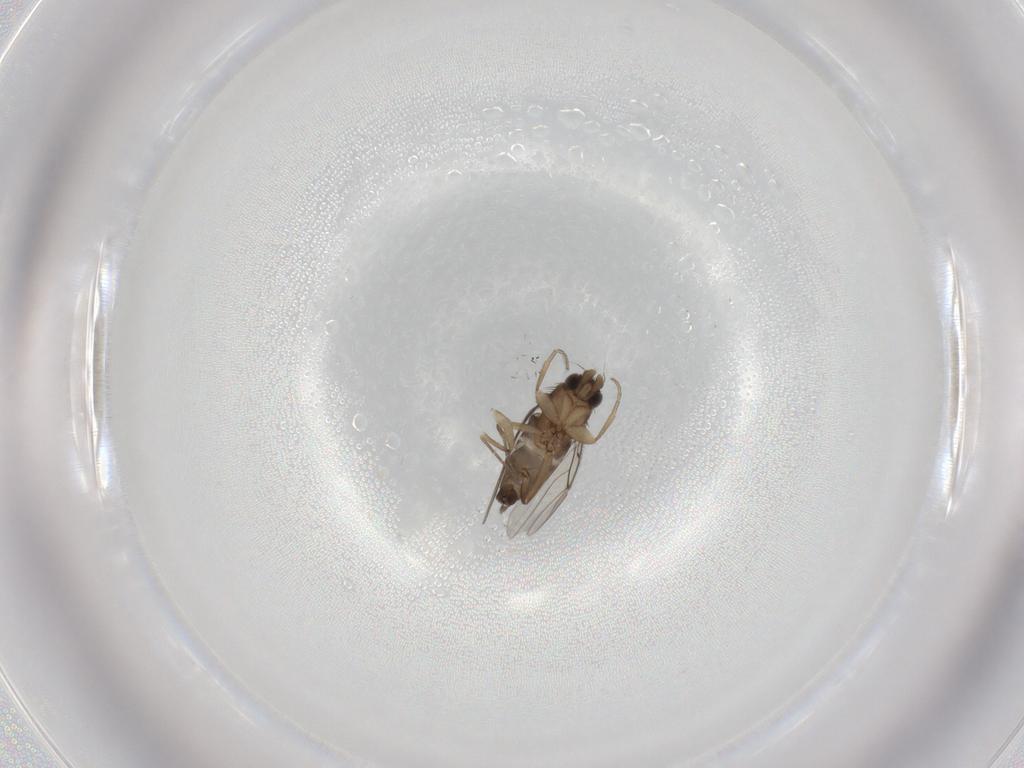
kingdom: Animalia
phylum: Arthropoda
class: Insecta
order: Diptera
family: Phoridae
